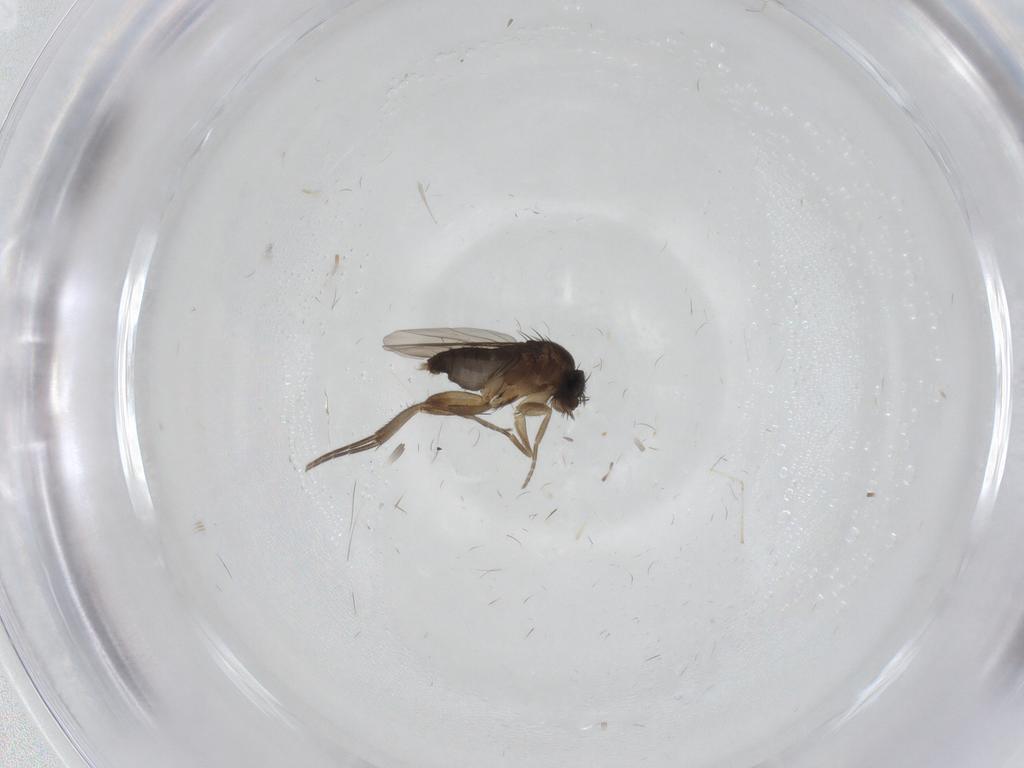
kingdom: Animalia
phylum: Arthropoda
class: Insecta
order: Diptera
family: Phoridae
